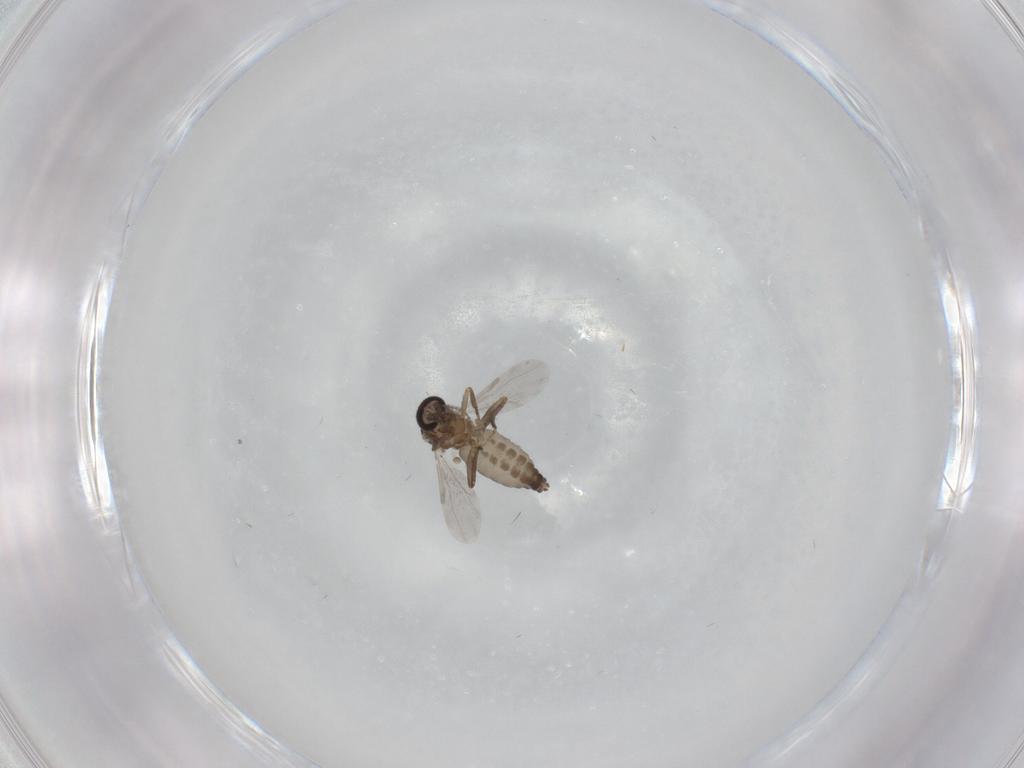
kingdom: Animalia
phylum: Arthropoda
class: Insecta
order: Diptera
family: Ceratopogonidae
